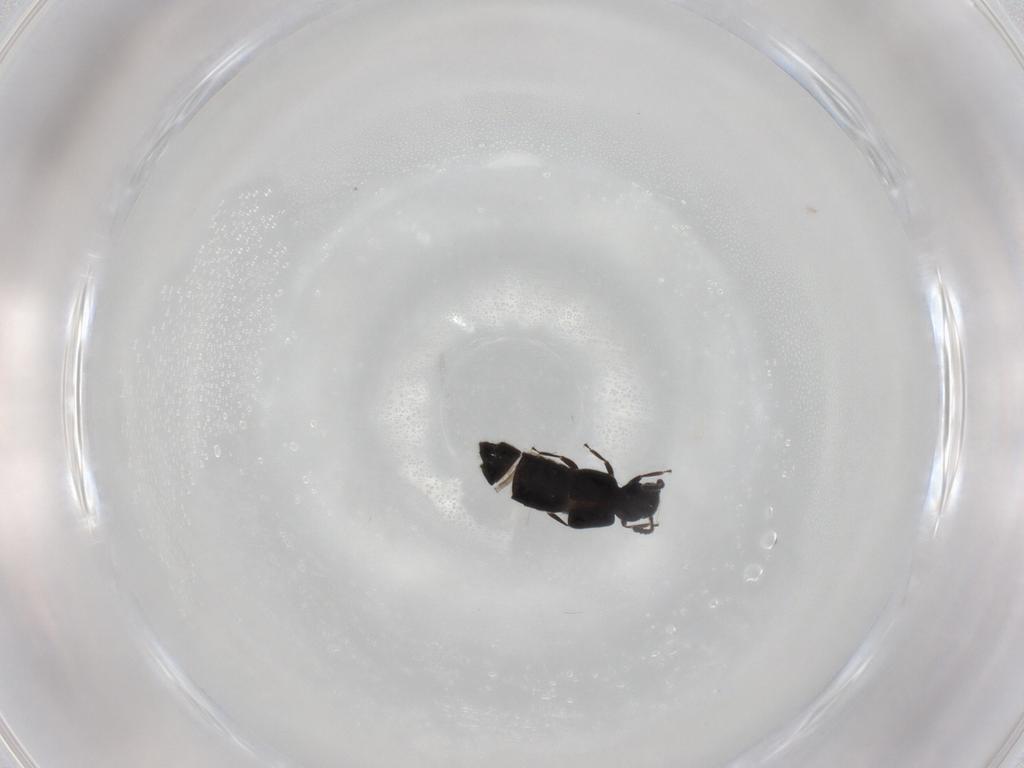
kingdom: Animalia
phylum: Arthropoda
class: Insecta
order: Coleoptera
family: Staphylinidae
